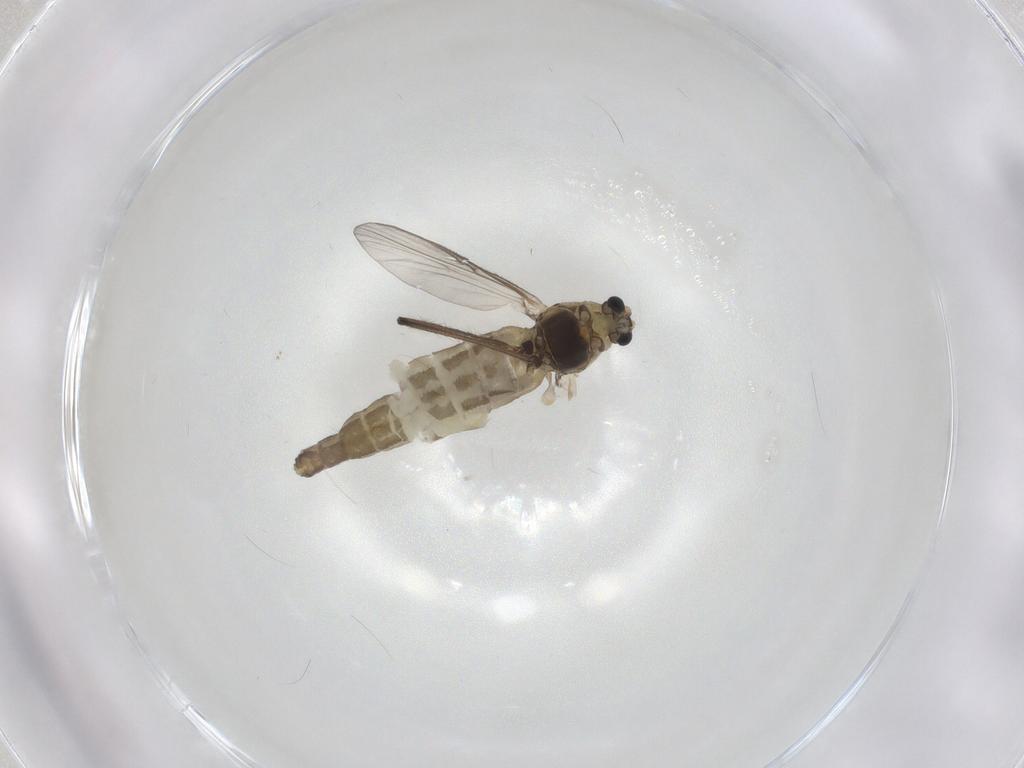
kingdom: Animalia
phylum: Arthropoda
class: Insecta
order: Diptera
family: Chironomidae
